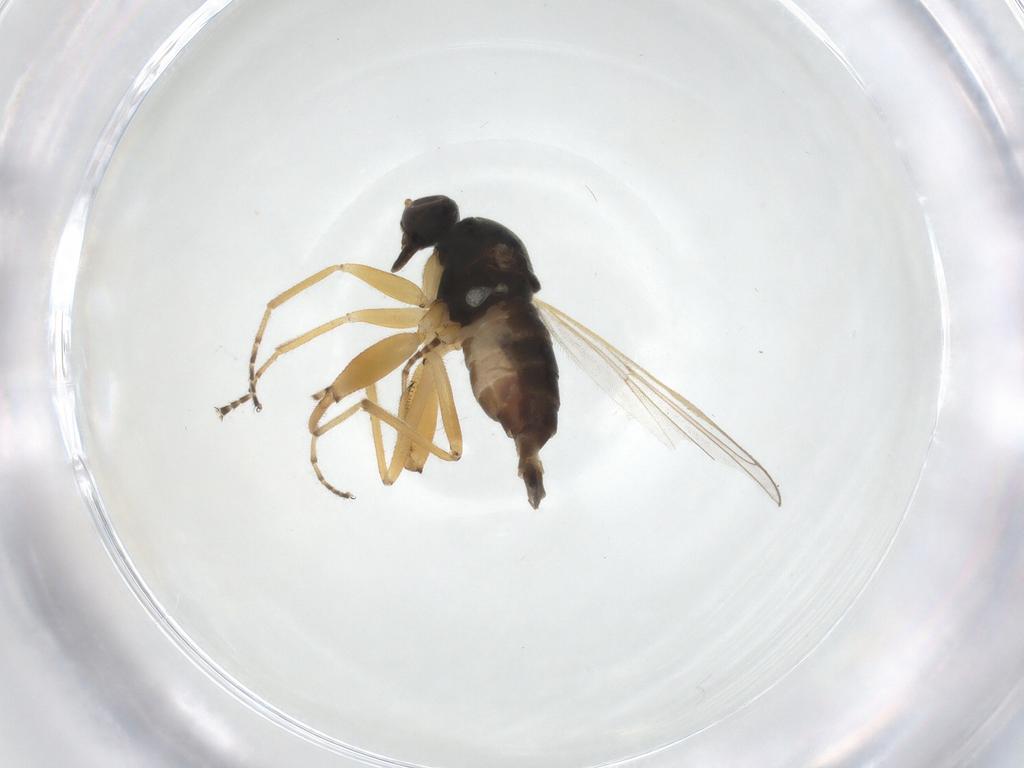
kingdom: Animalia
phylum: Arthropoda
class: Insecta
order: Diptera
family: Hybotidae
